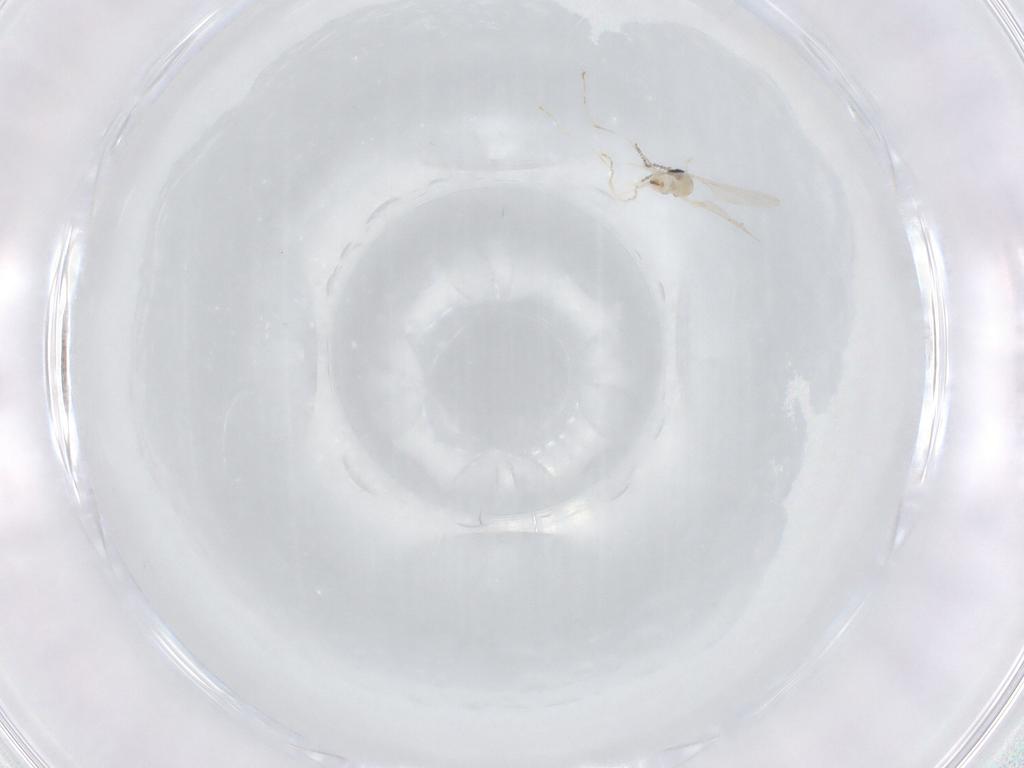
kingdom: Animalia
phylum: Arthropoda
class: Insecta
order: Diptera
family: Cecidomyiidae
